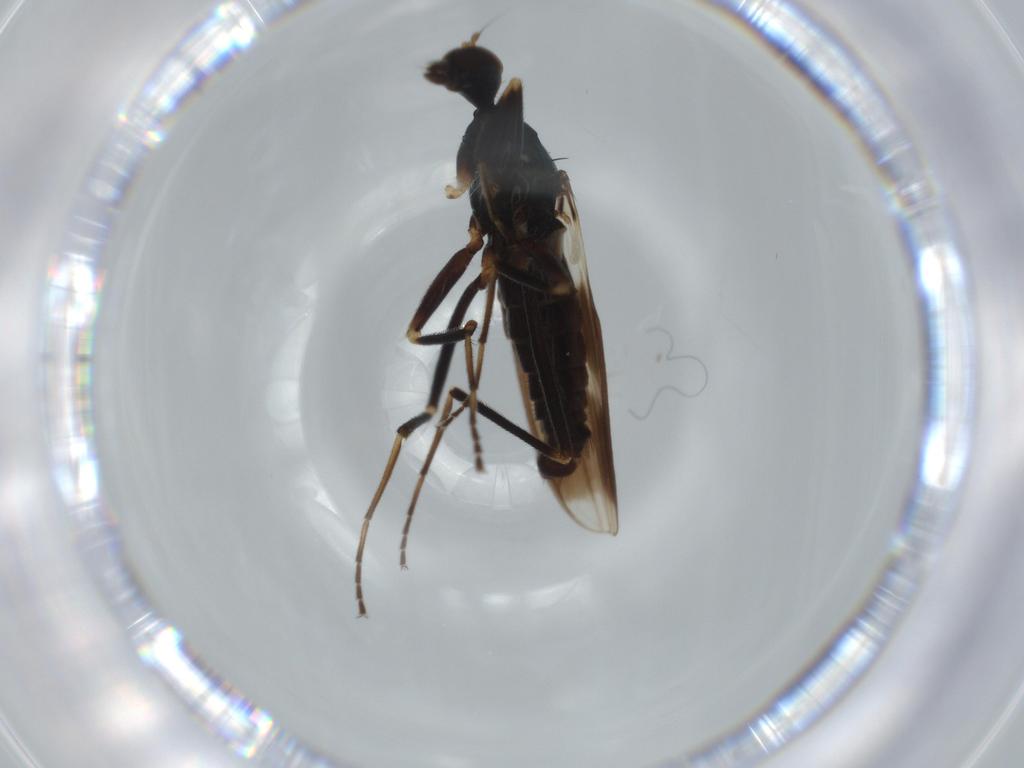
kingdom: Animalia
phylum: Arthropoda
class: Insecta
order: Diptera
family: Hybotidae
